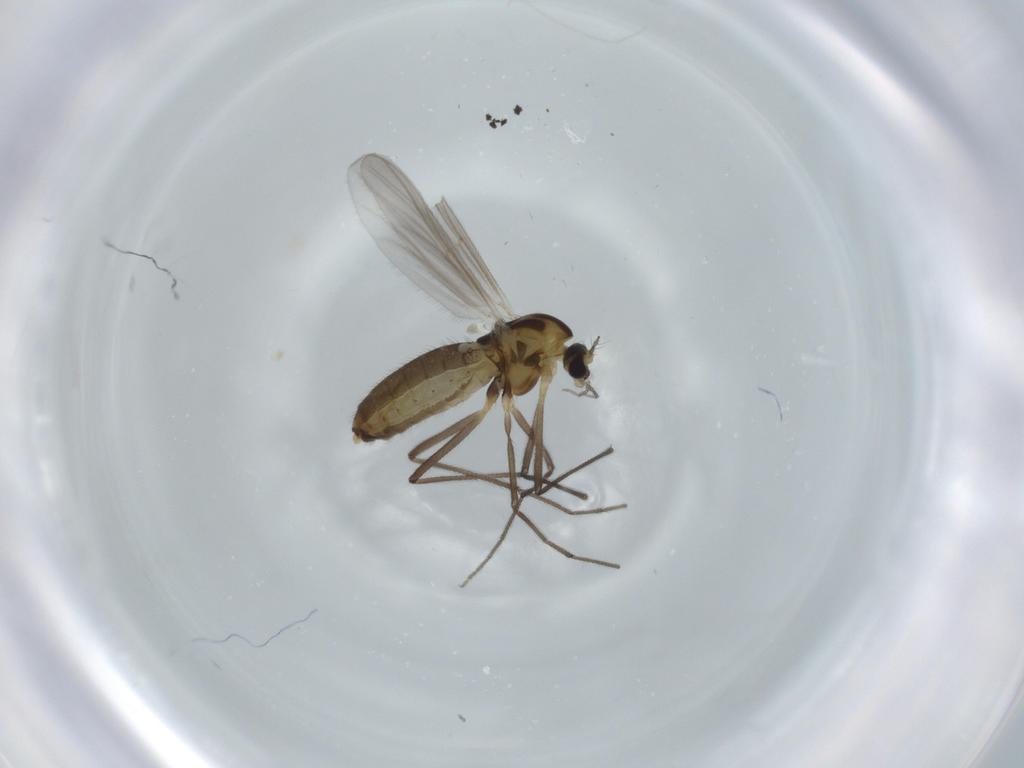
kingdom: Animalia
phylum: Arthropoda
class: Insecta
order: Diptera
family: Chironomidae
